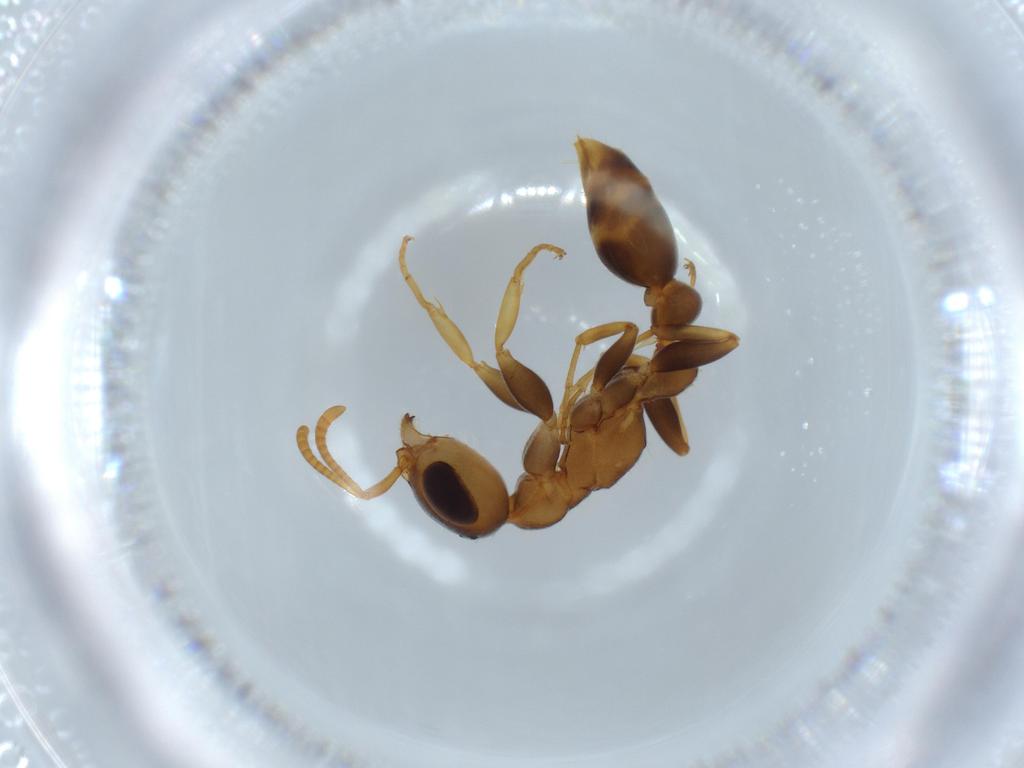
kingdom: Animalia
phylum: Arthropoda
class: Insecta
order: Hymenoptera
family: Formicidae
